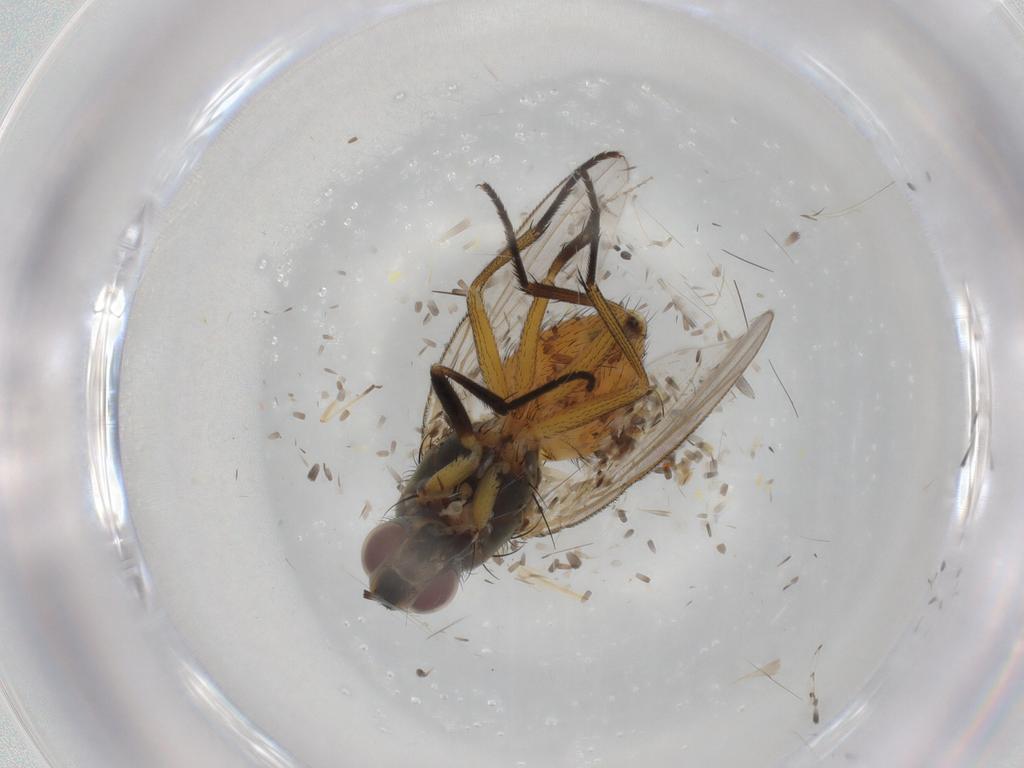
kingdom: Animalia
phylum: Arthropoda
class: Insecta
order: Diptera
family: Muscidae
